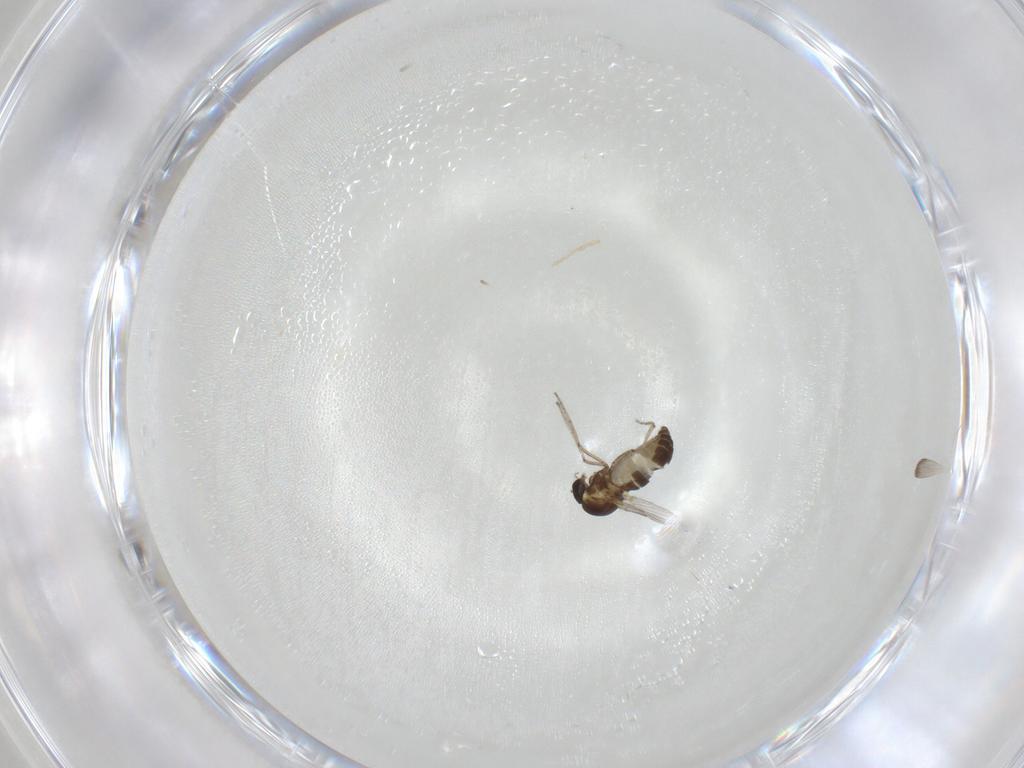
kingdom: Animalia
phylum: Arthropoda
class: Insecta
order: Diptera
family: Ceratopogonidae
